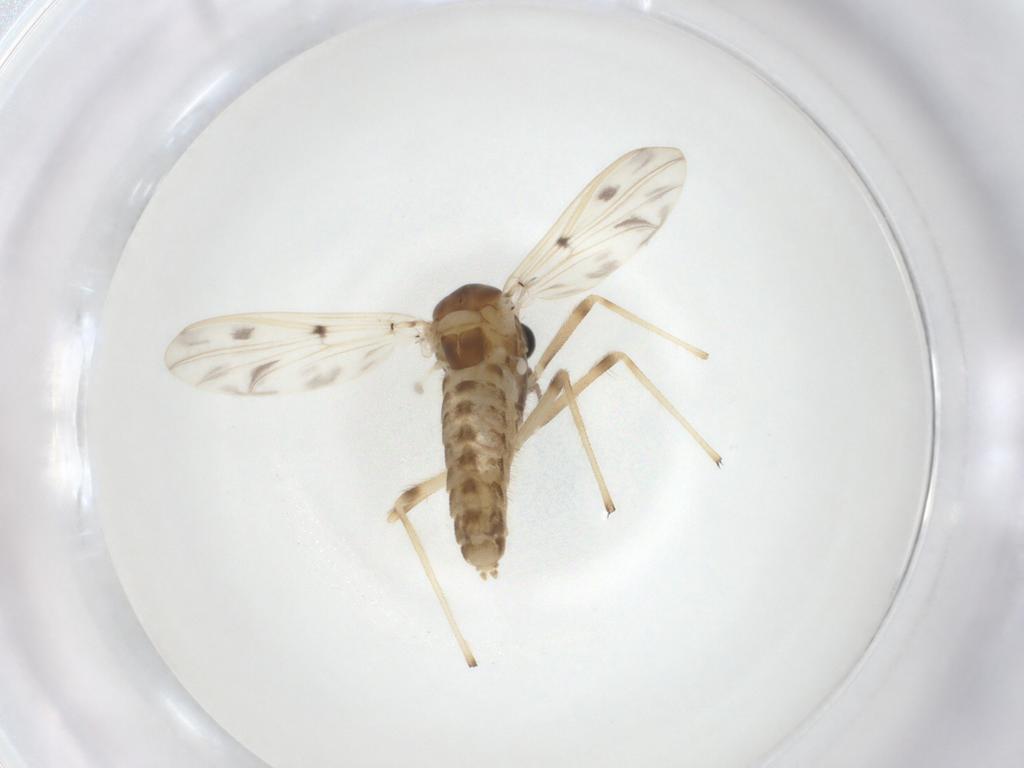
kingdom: Animalia
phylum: Arthropoda
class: Insecta
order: Diptera
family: Chironomidae
